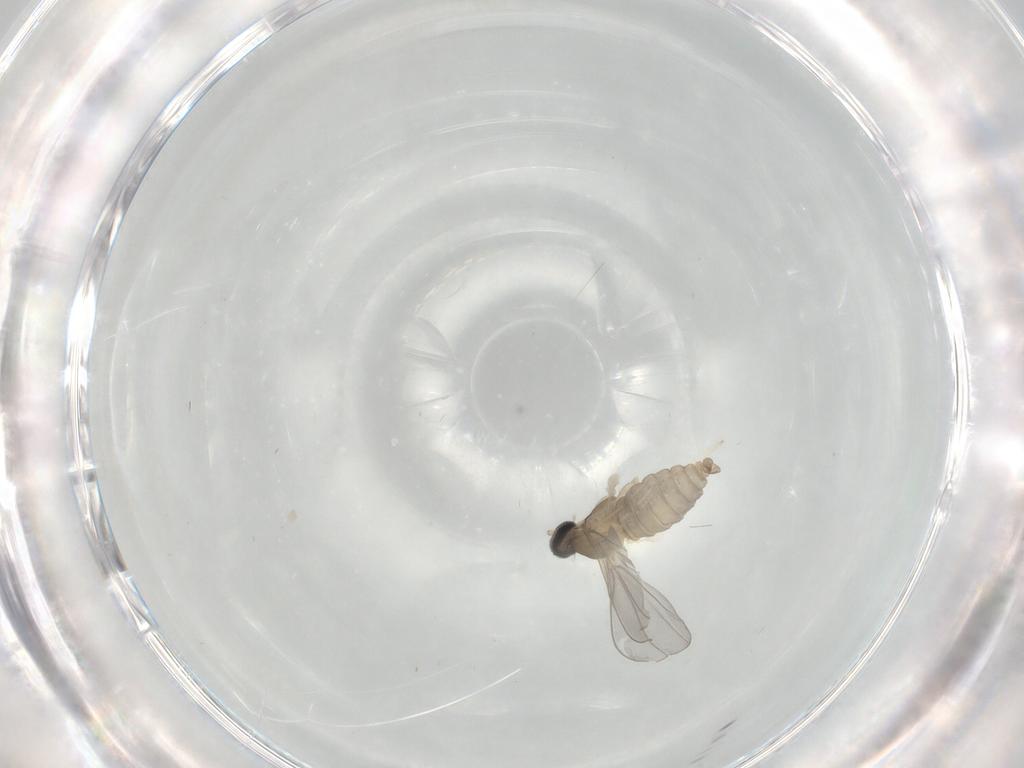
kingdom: Animalia
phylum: Arthropoda
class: Insecta
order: Diptera
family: Cecidomyiidae
